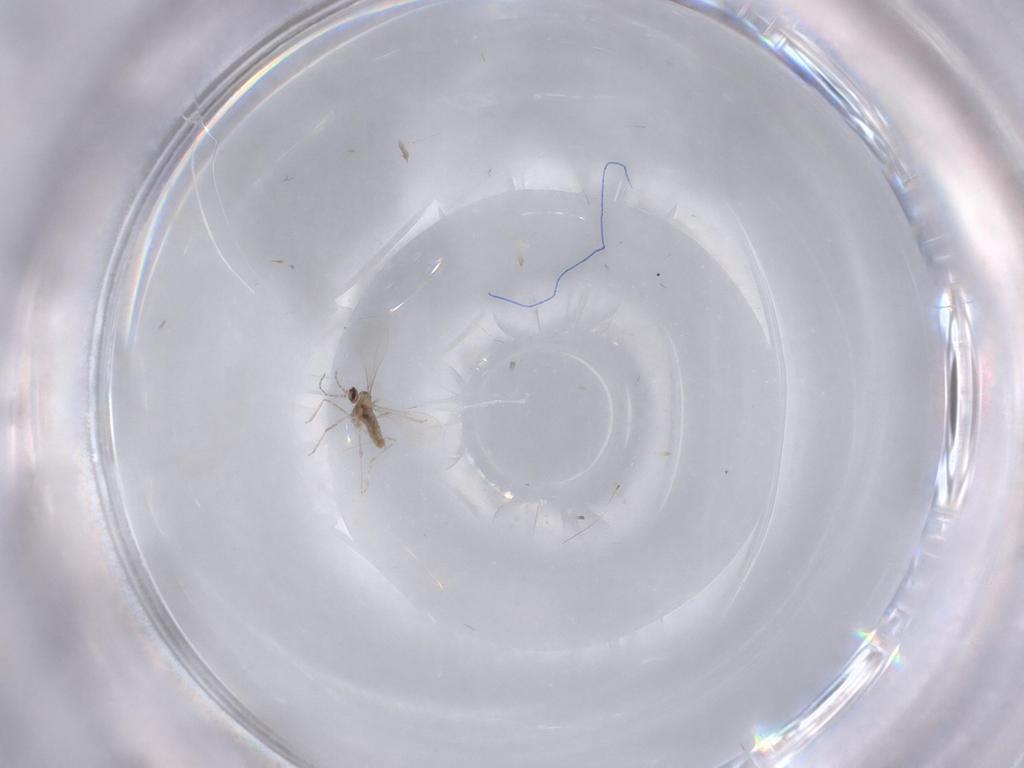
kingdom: Animalia
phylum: Arthropoda
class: Insecta
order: Diptera
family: Cecidomyiidae
